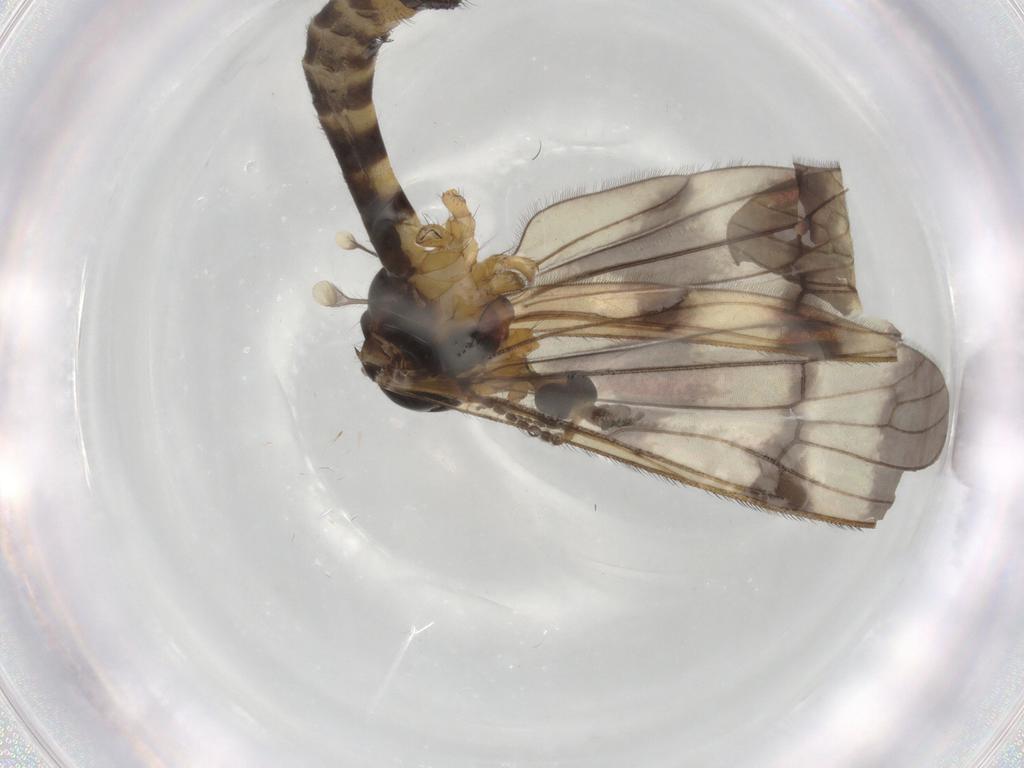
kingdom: Animalia
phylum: Arthropoda
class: Insecta
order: Diptera
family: Limoniidae
